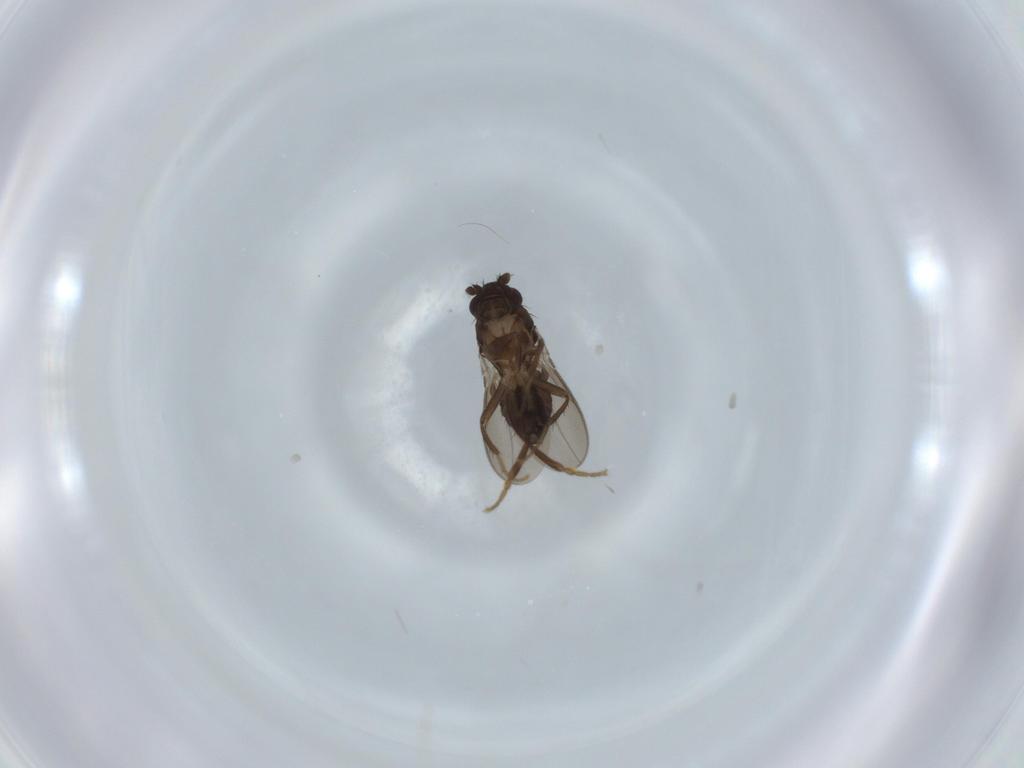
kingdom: Animalia
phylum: Arthropoda
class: Insecta
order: Diptera
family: Sphaeroceridae
